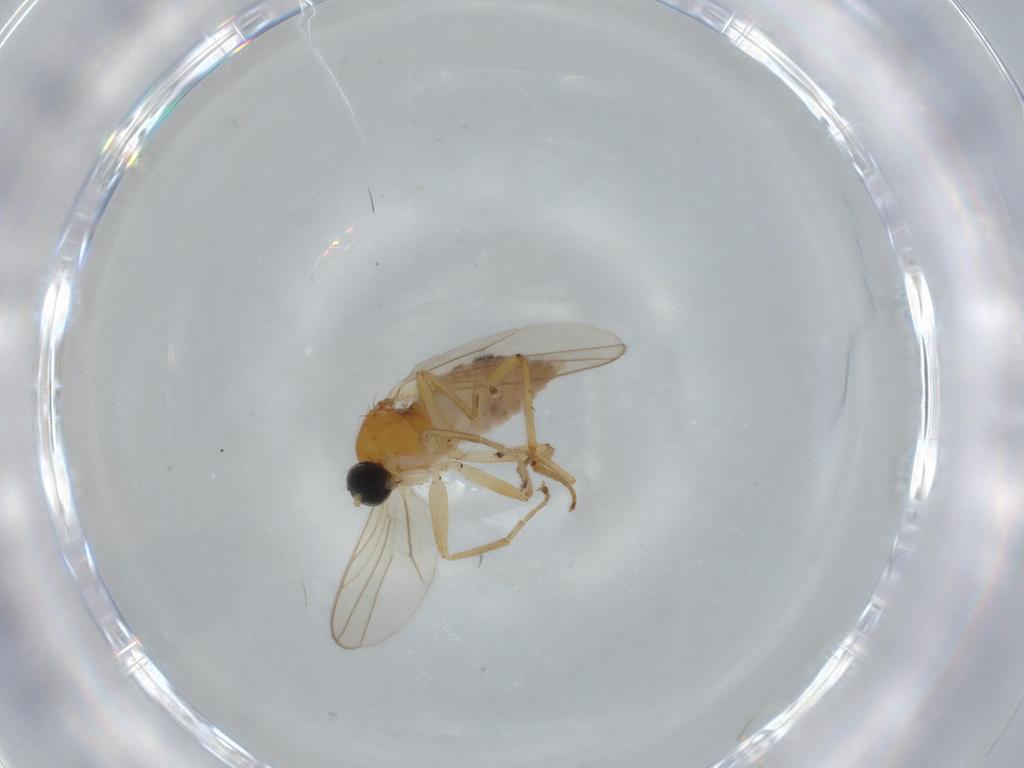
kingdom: Animalia
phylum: Arthropoda
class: Insecta
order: Diptera
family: Hybotidae
